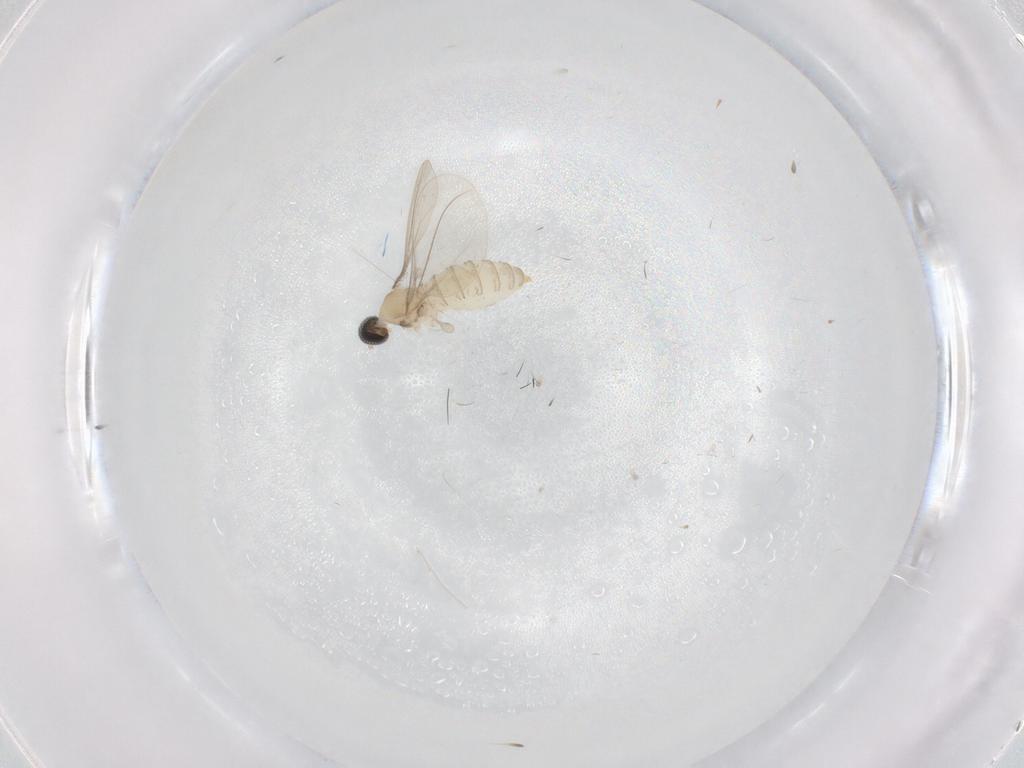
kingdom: Animalia
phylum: Arthropoda
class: Insecta
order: Diptera
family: Cecidomyiidae
